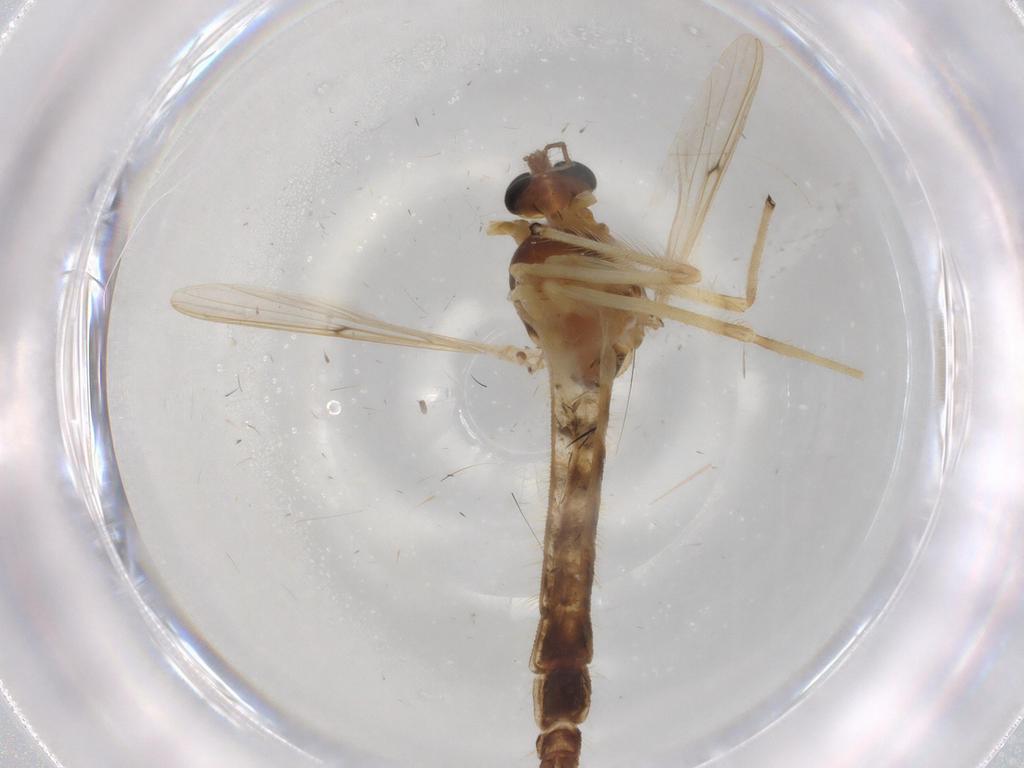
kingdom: Animalia
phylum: Arthropoda
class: Insecta
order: Diptera
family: Chironomidae
